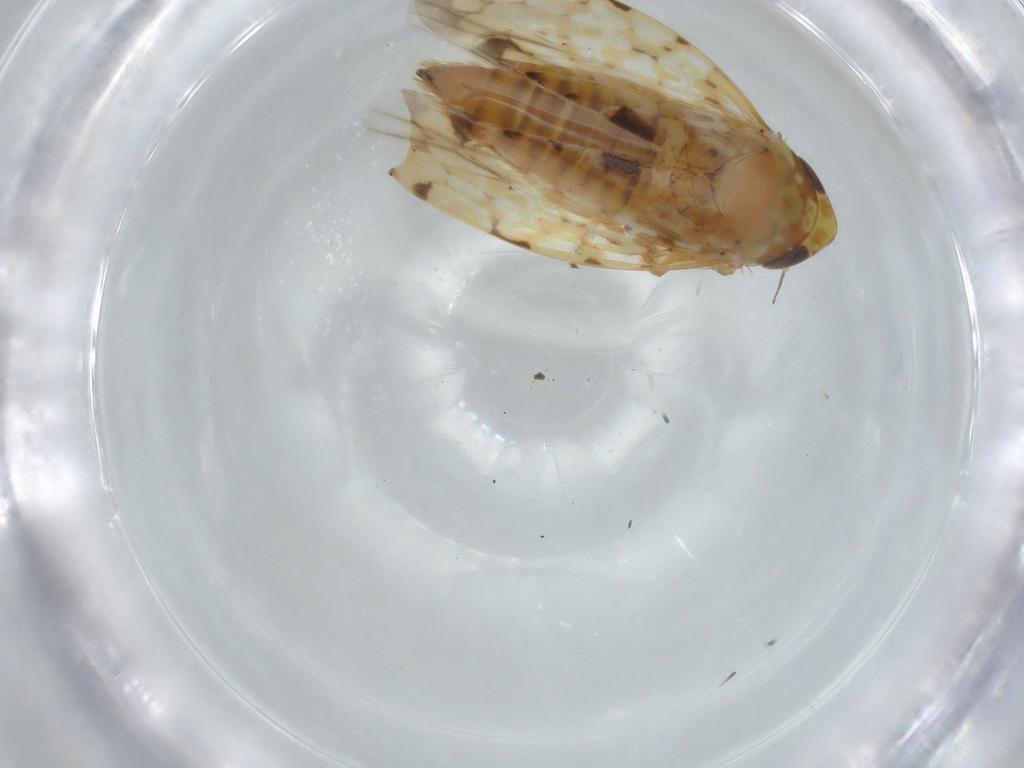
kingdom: Animalia
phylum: Arthropoda
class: Insecta
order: Hemiptera
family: Cicadellidae
